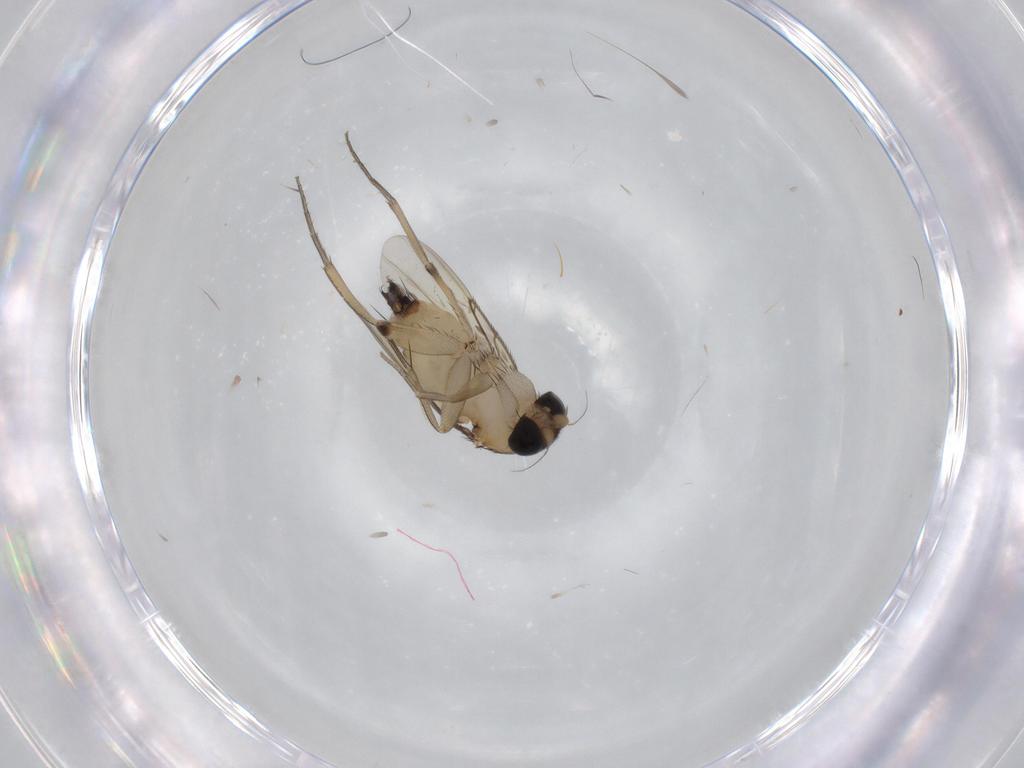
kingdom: Animalia
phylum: Arthropoda
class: Insecta
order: Diptera
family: Phoridae
